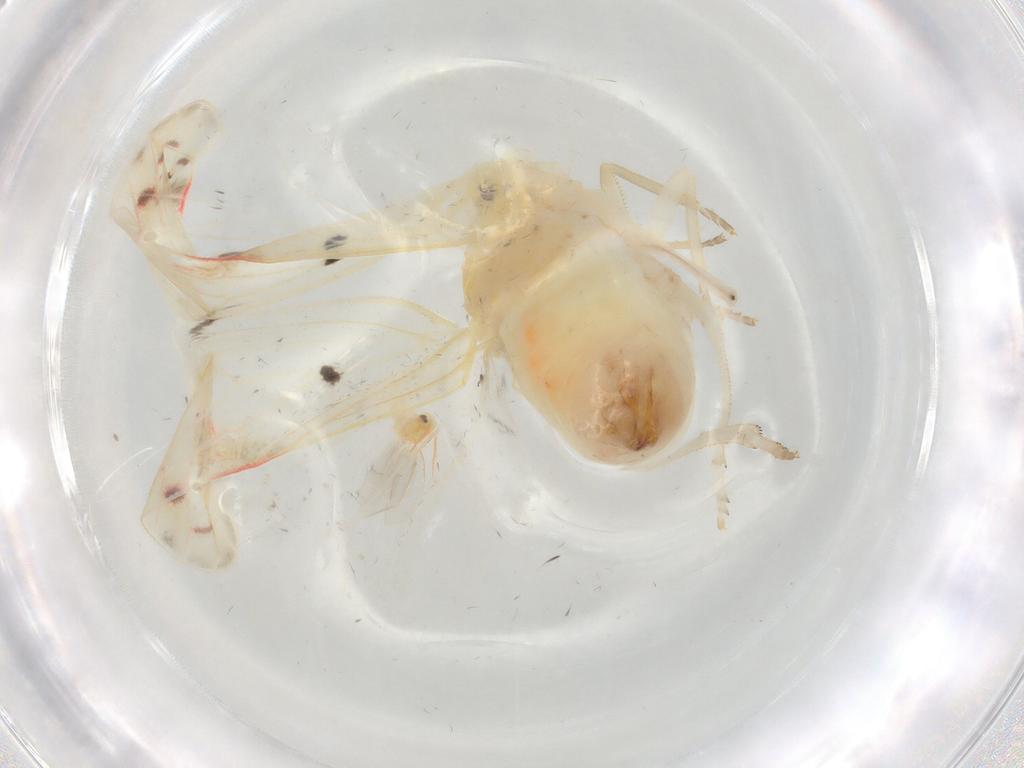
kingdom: Animalia
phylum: Arthropoda
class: Insecta
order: Hemiptera
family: Derbidae
